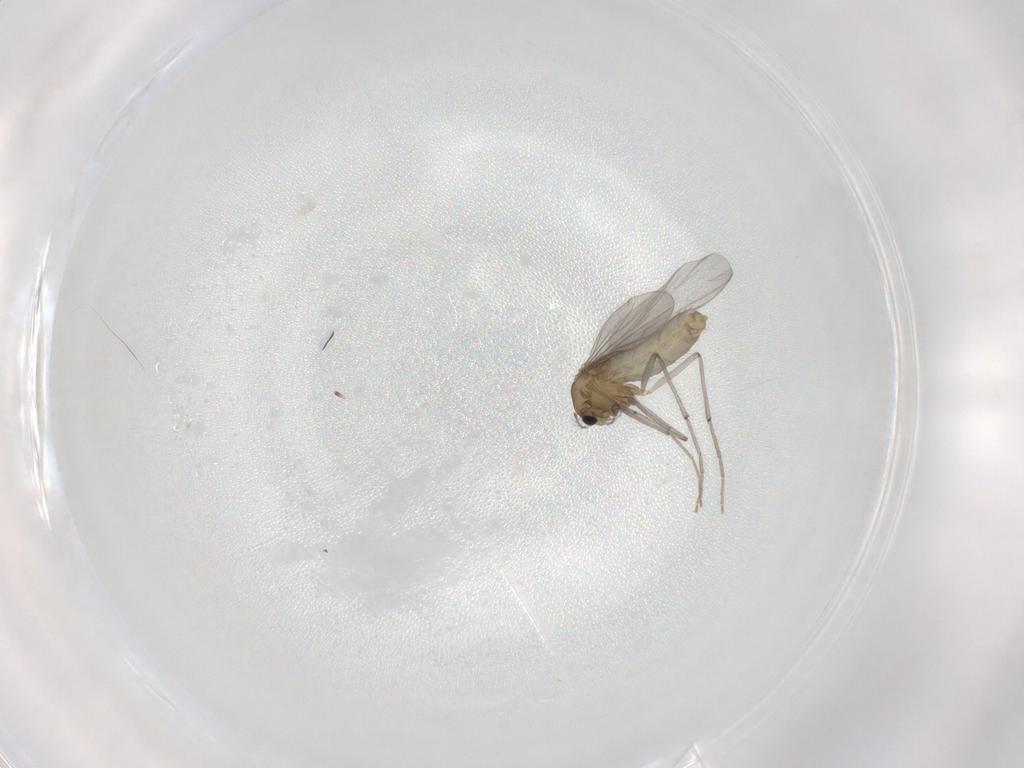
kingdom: Animalia
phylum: Arthropoda
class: Insecta
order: Diptera
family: Chironomidae
